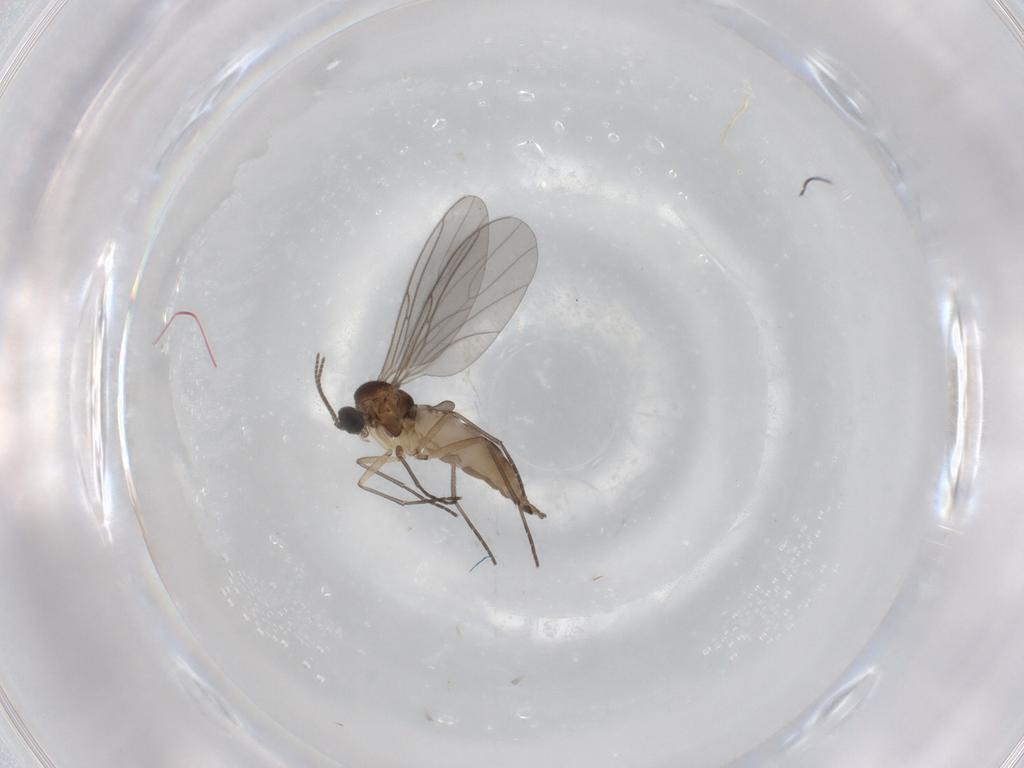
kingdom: Animalia
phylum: Arthropoda
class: Insecta
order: Diptera
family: Sciaridae
